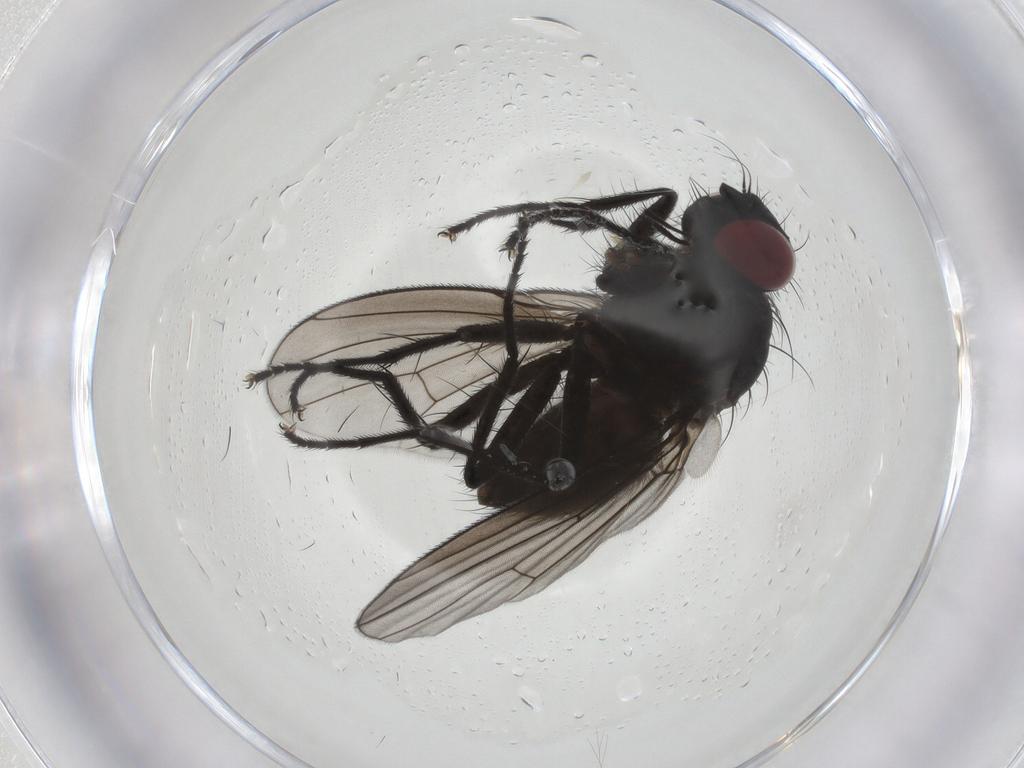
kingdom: Animalia
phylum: Arthropoda
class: Insecta
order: Diptera
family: Muscidae
